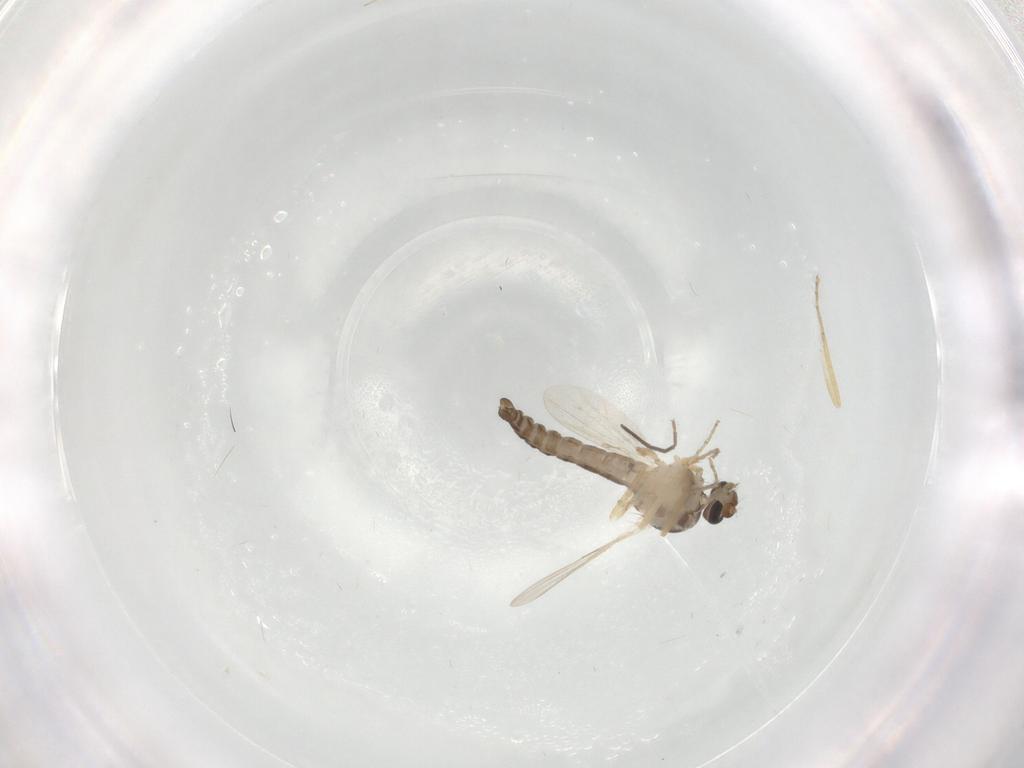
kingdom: Animalia
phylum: Arthropoda
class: Insecta
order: Diptera
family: Ceratopogonidae
